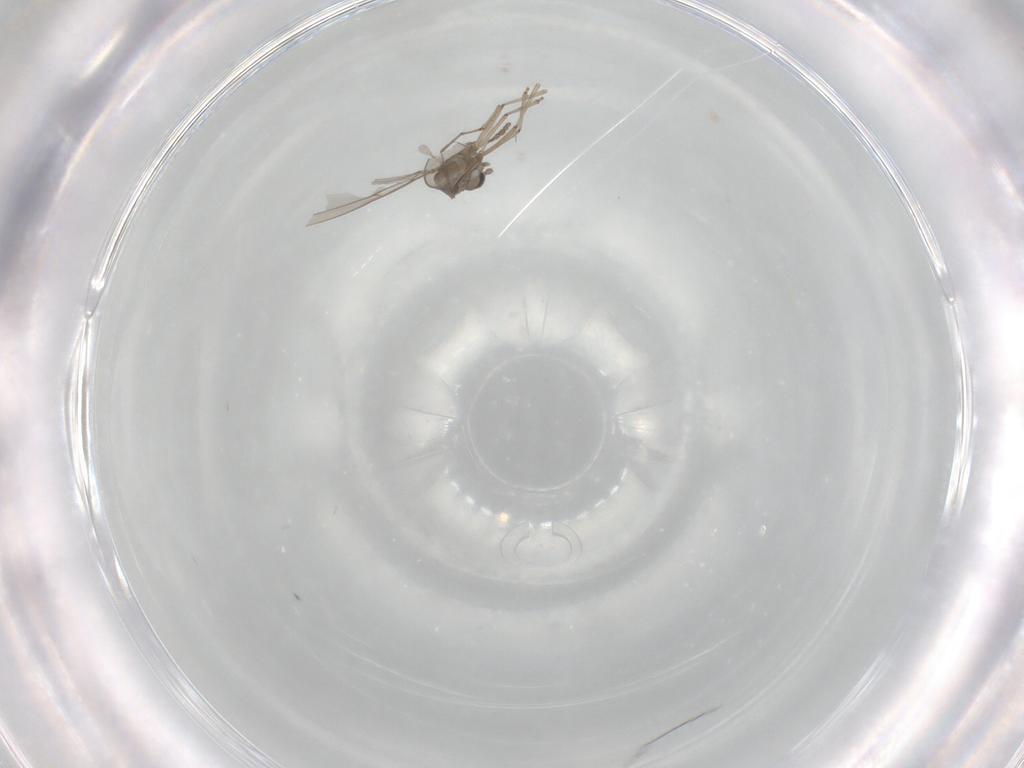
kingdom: Animalia
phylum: Arthropoda
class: Insecta
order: Diptera
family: Cecidomyiidae
